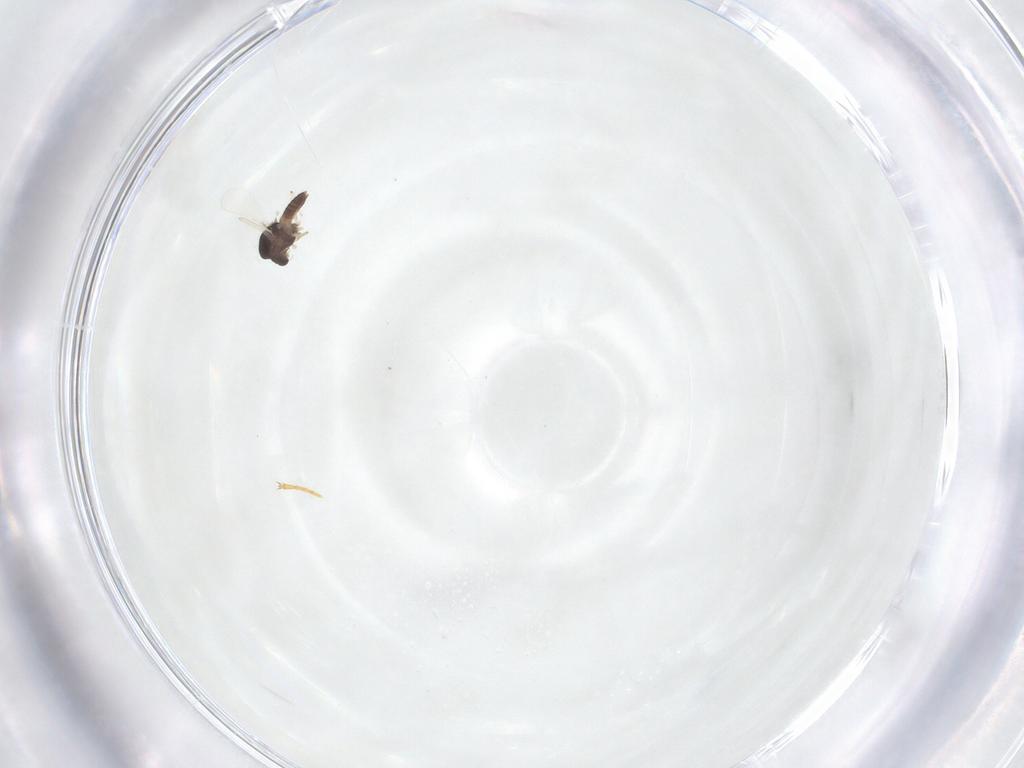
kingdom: Animalia
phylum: Arthropoda
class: Insecta
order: Diptera
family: Chironomidae
